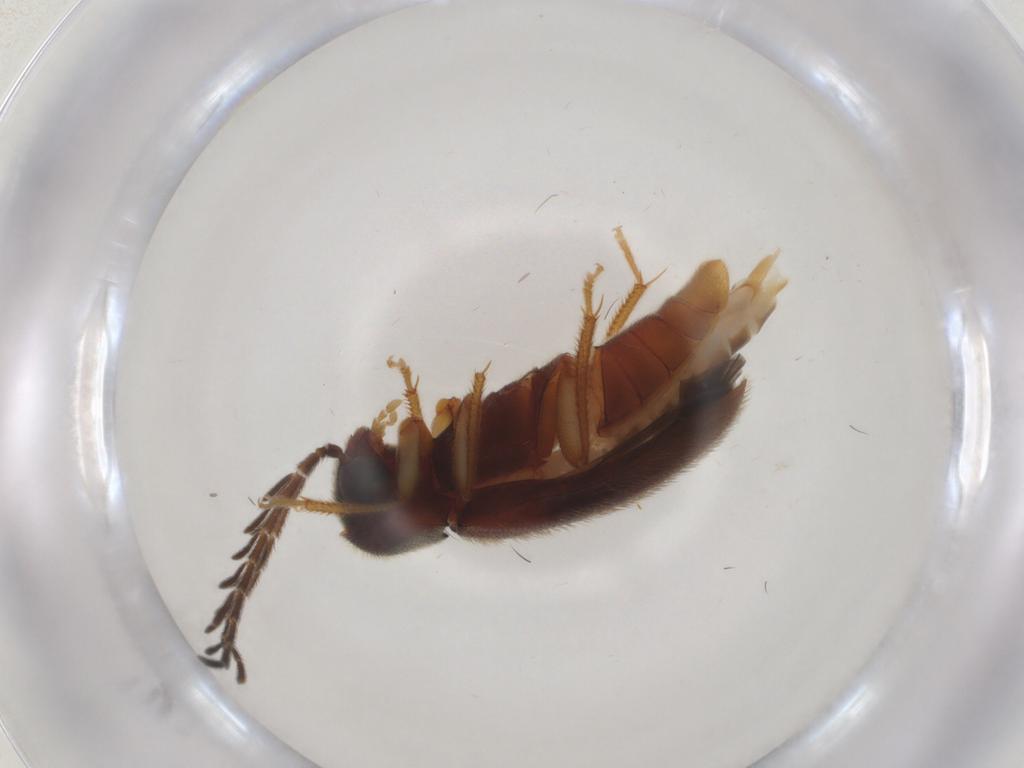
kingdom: Animalia
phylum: Arthropoda
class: Insecta
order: Coleoptera
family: Ptilodactylidae
